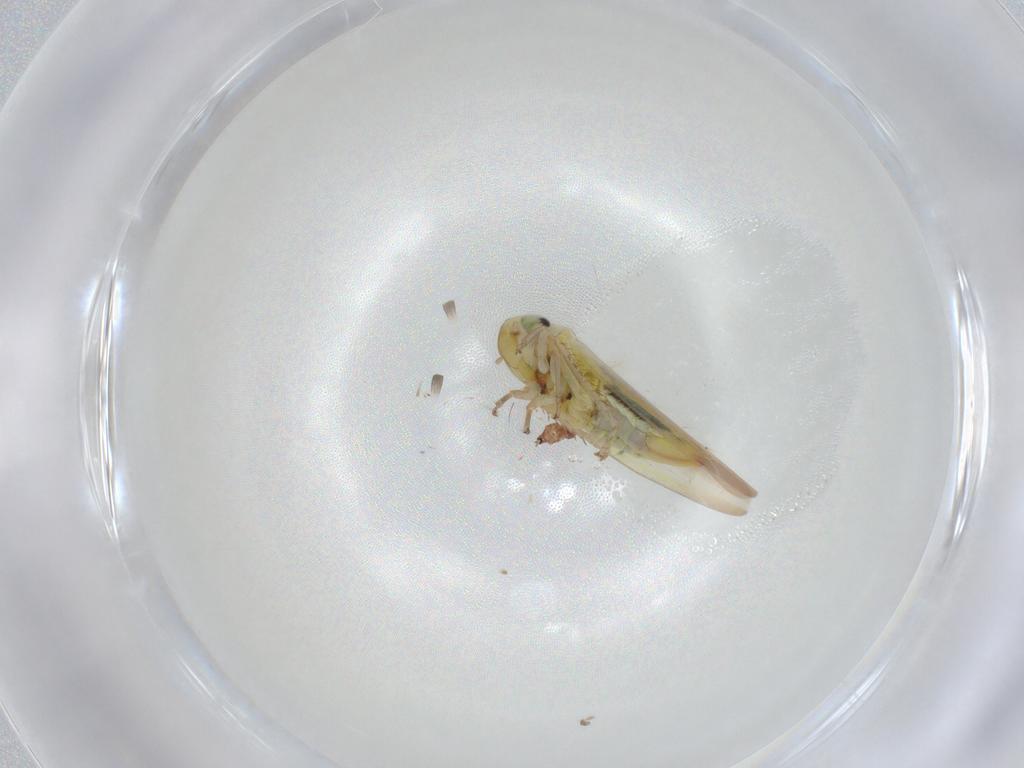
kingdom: Animalia
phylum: Arthropoda
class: Insecta
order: Hemiptera
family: Cicadellidae
